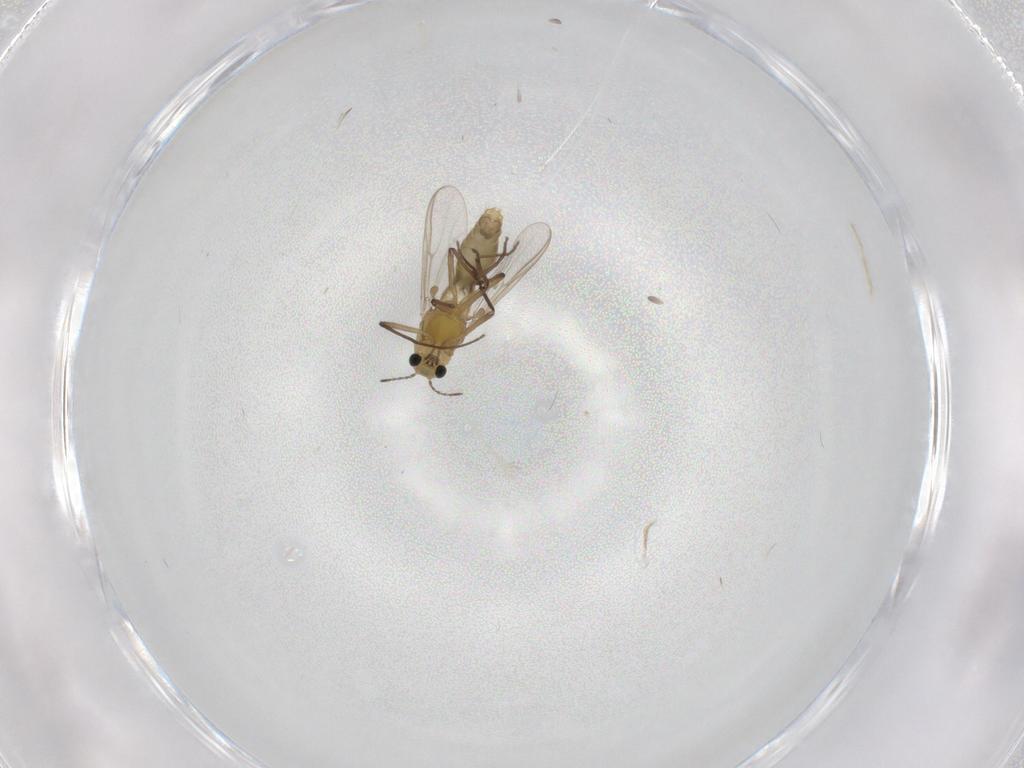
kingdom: Animalia
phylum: Arthropoda
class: Insecta
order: Diptera
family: Chironomidae
